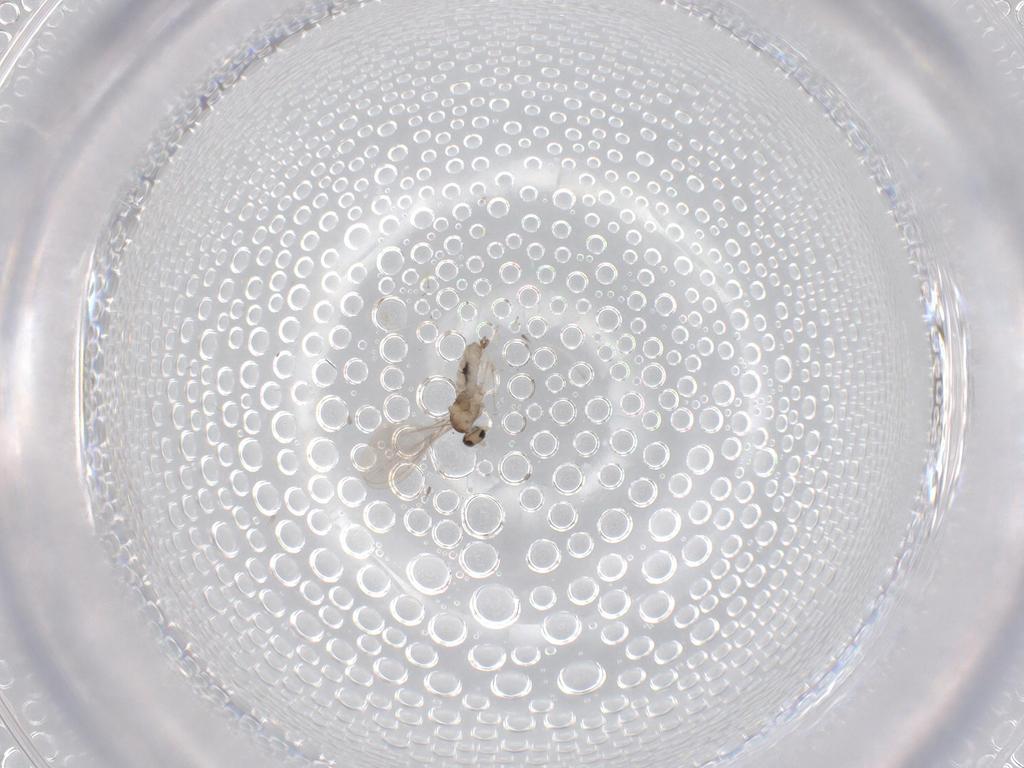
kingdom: Animalia
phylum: Arthropoda
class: Insecta
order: Diptera
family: Cecidomyiidae
